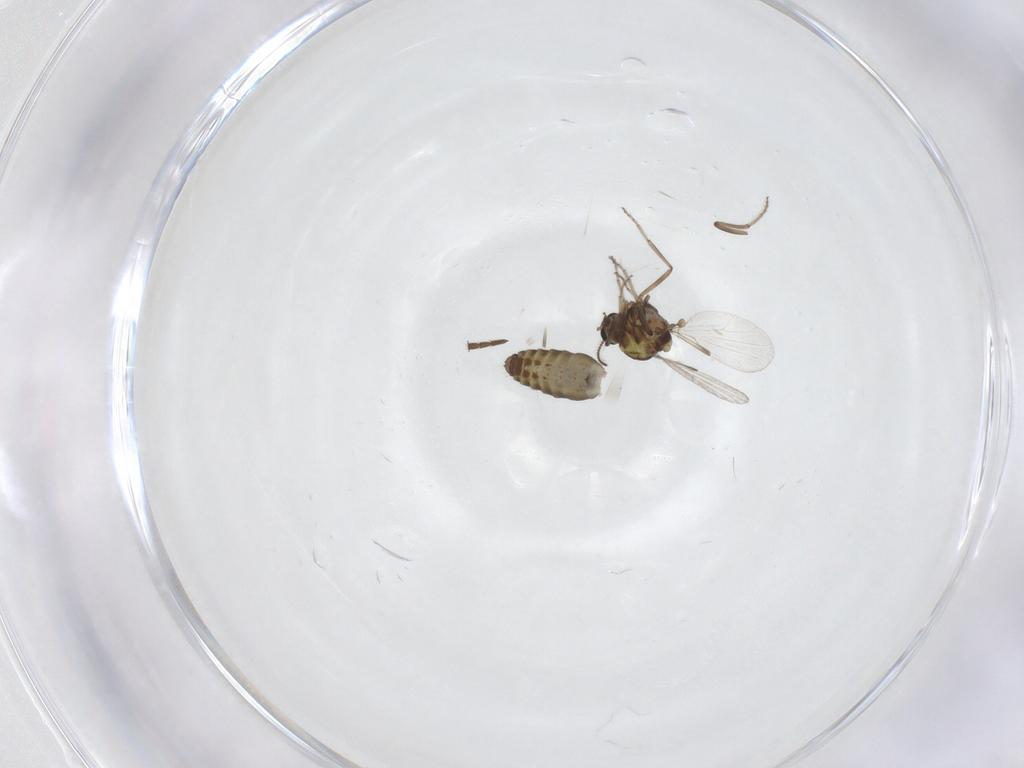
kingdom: Animalia
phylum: Arthropoda
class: Insecta
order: Diptera
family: Ceratopogonidae
